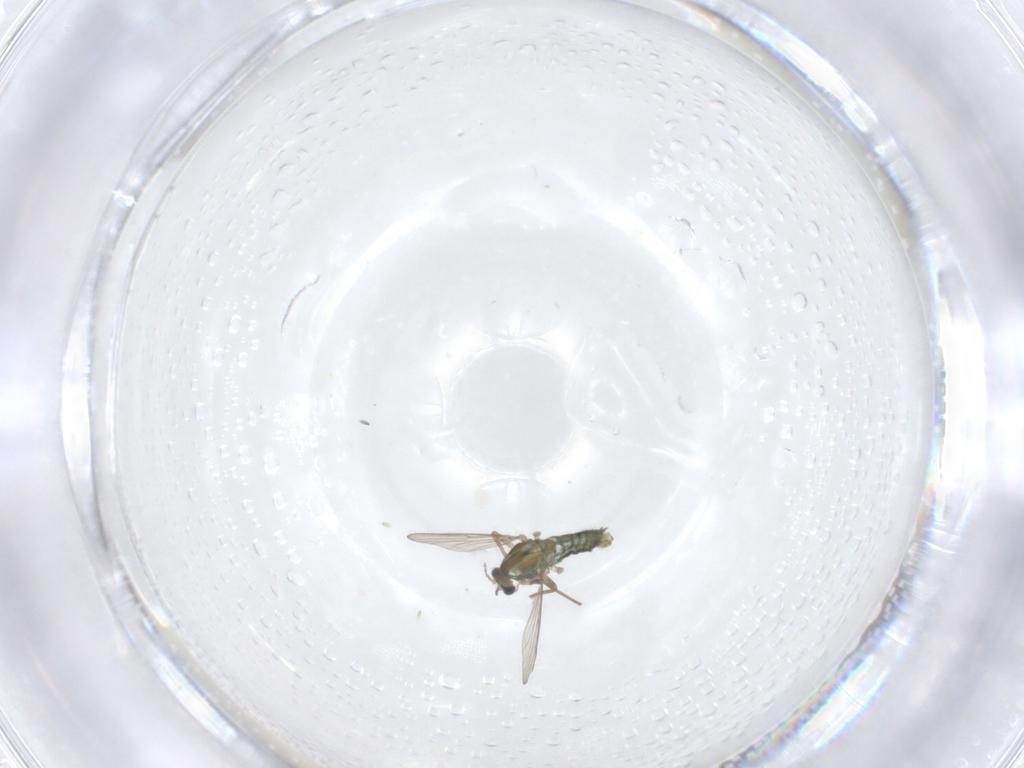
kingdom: Animalia
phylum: Arthropoda
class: Insecta
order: Diptera
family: Chironomidae
